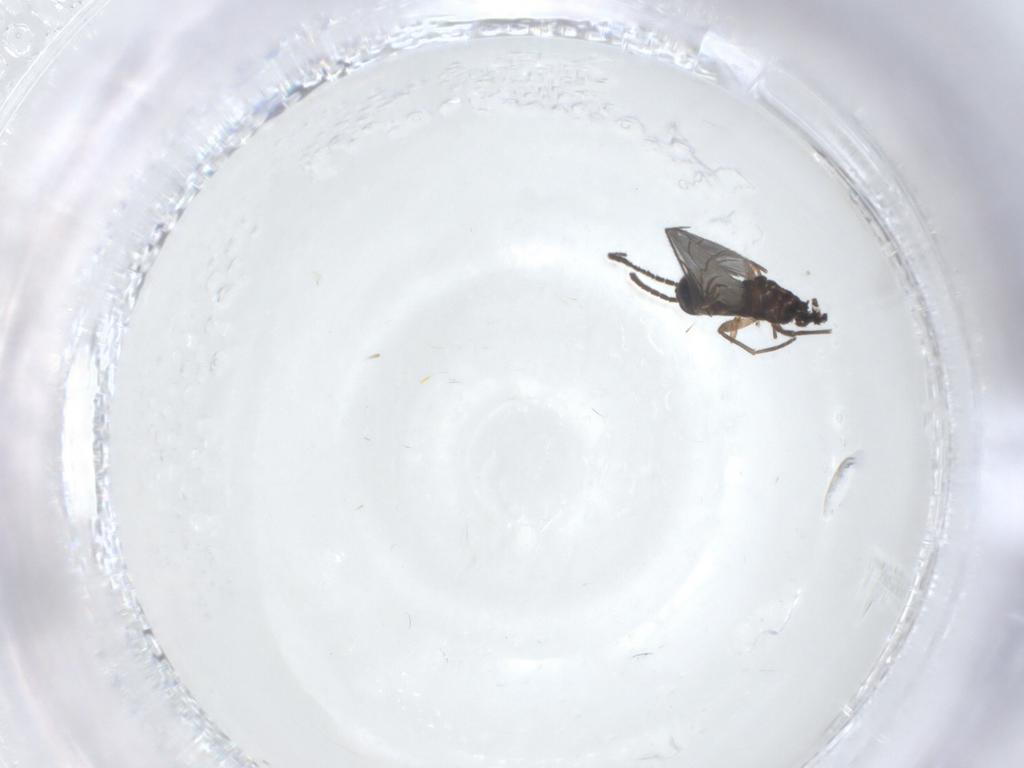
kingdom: Animalia
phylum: Arthropoda
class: Insecta
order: Diptera
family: Sciaridae
